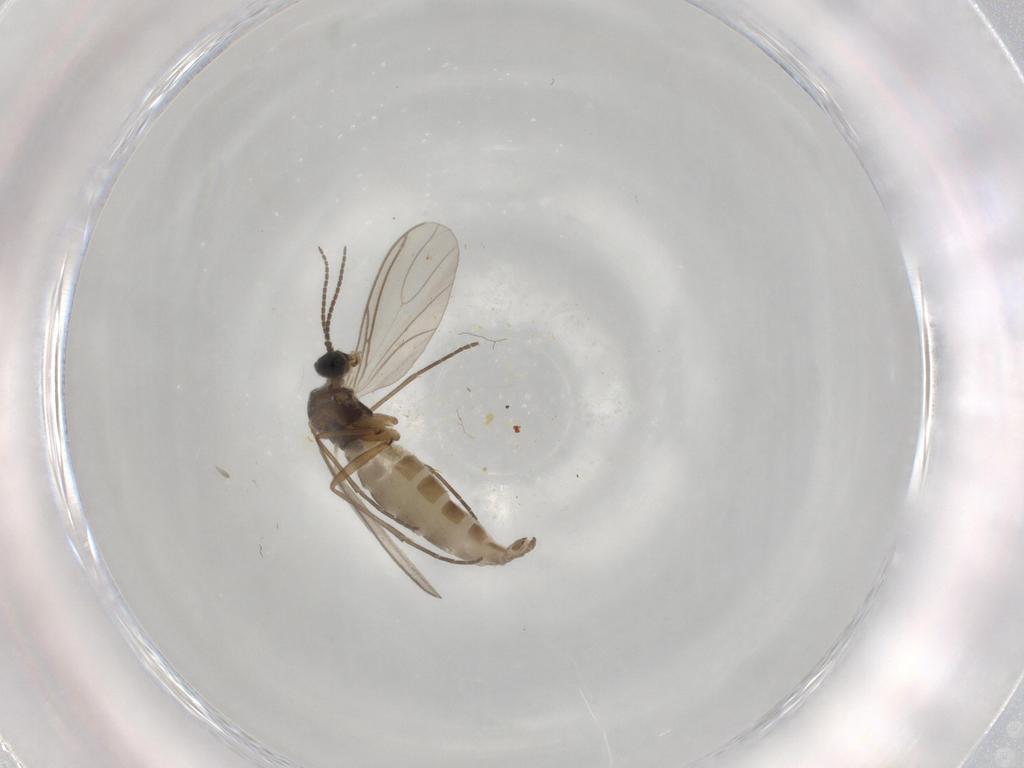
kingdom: Animalia
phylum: Arthropoda
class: Insecta
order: Diptera
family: Sciaridae
